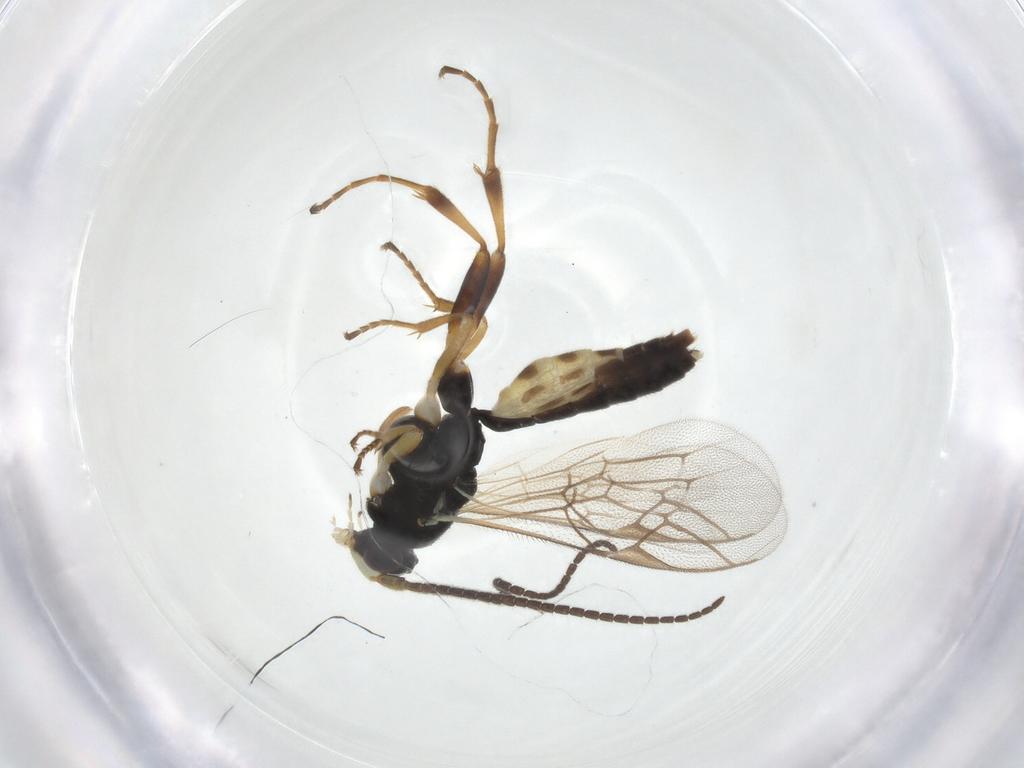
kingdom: Animalia
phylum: Arthropoda
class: Insecta
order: Hymenoptera
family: Ichneumonidae
